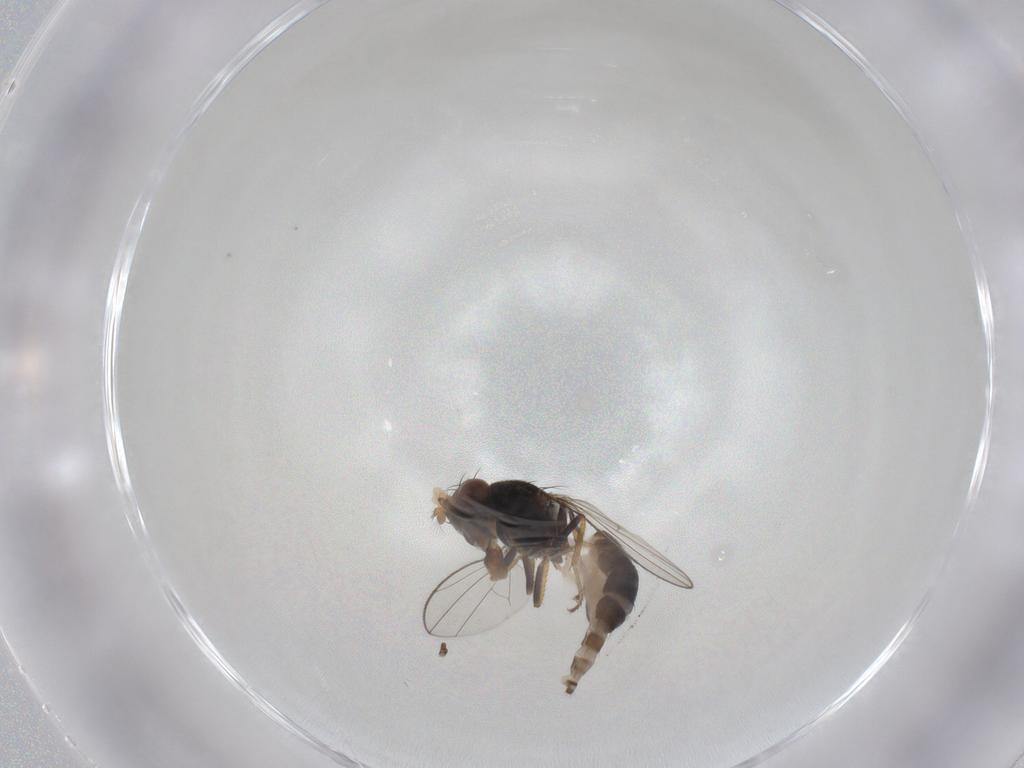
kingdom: Animalia
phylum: Arthropoda
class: Insecta
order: Diptera
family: Ephydridae
